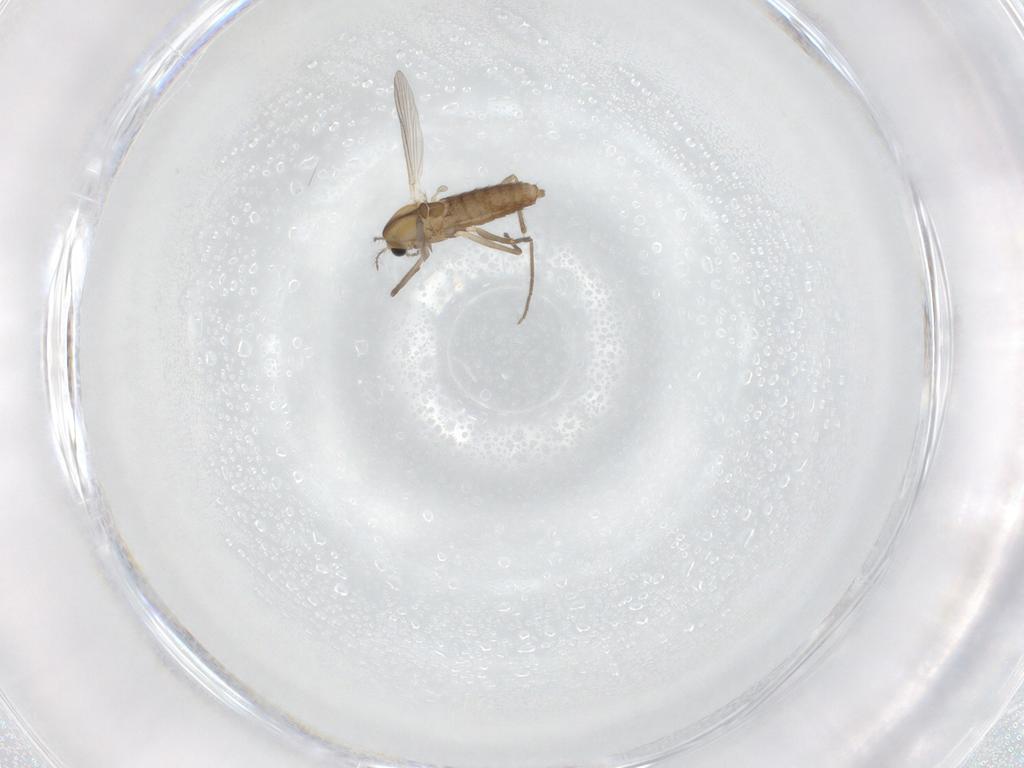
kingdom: Animalia
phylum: Arthropoda
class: Insecta
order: Diptera
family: Chironomidae
